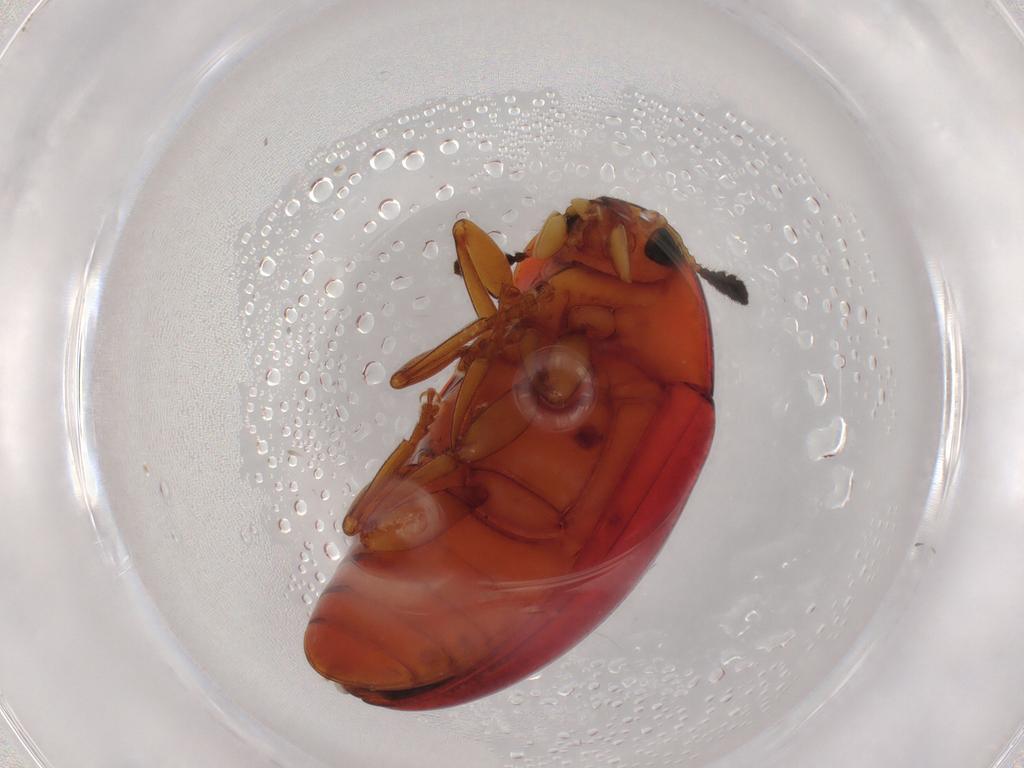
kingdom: Animalia
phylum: Arthropoda
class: Insecta
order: Coleoptera
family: Erotylidae
